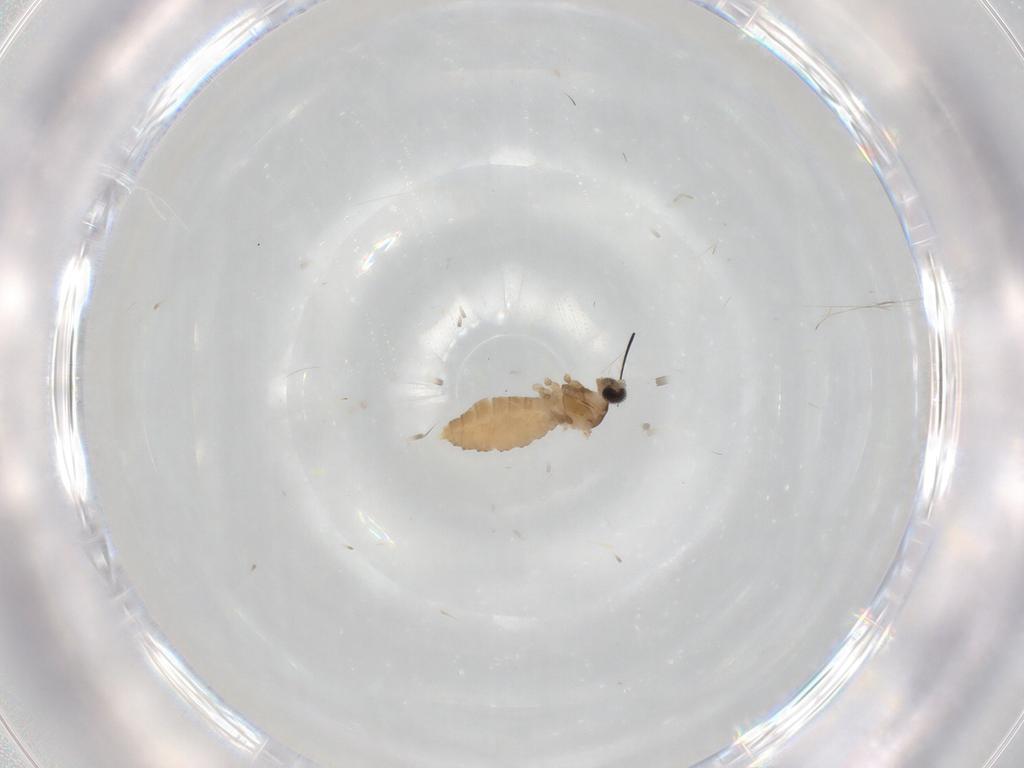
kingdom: Animalia
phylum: Arthropoda
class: Insecta
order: Diptera
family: Cecidomyiidae
